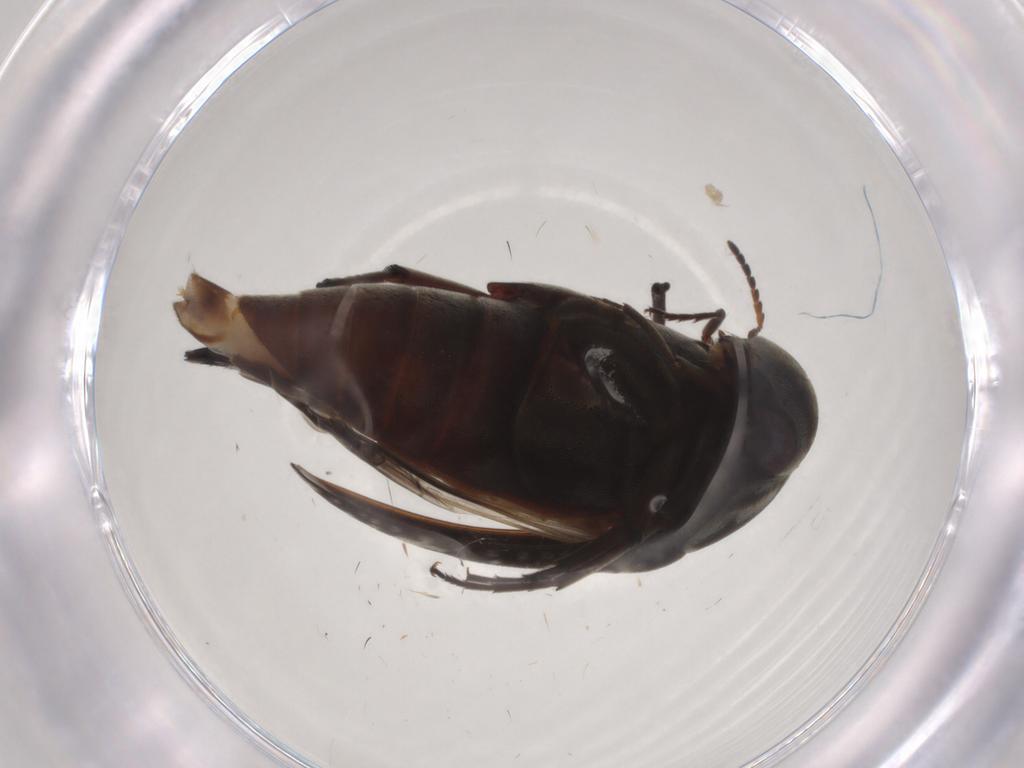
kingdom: Animalia
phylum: Arthropoda
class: Insecta
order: Coleoptera
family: Mordellidae
